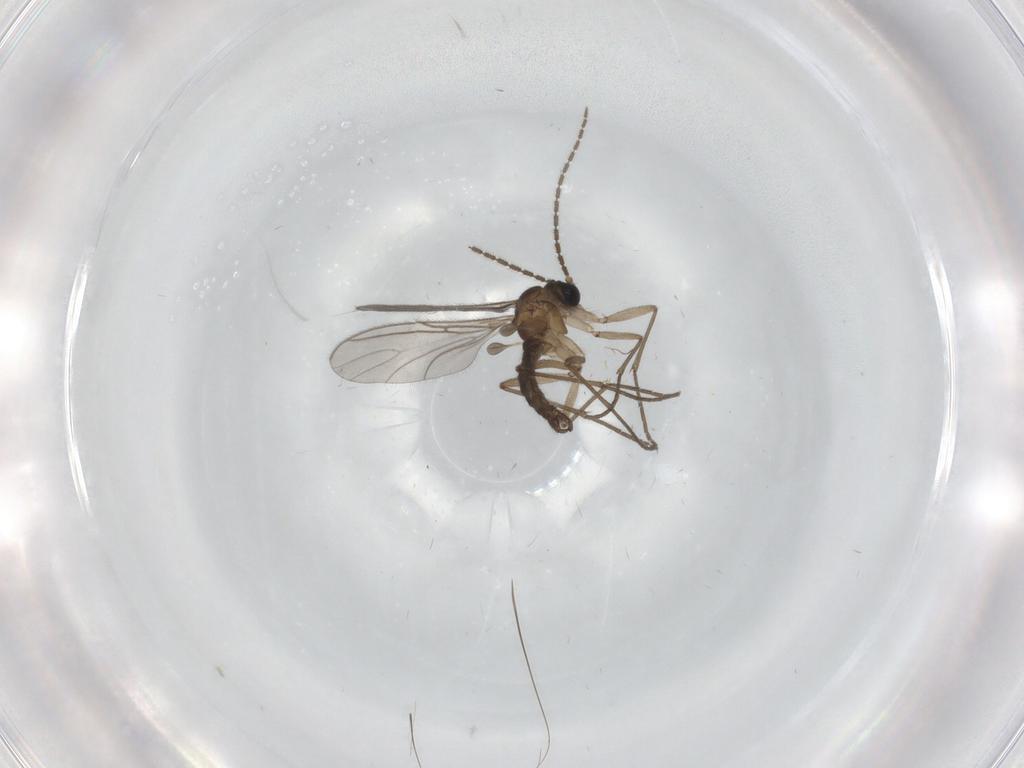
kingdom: Animalia
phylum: Arthropoda
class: Insecta
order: Diptera
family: Sciaridae
